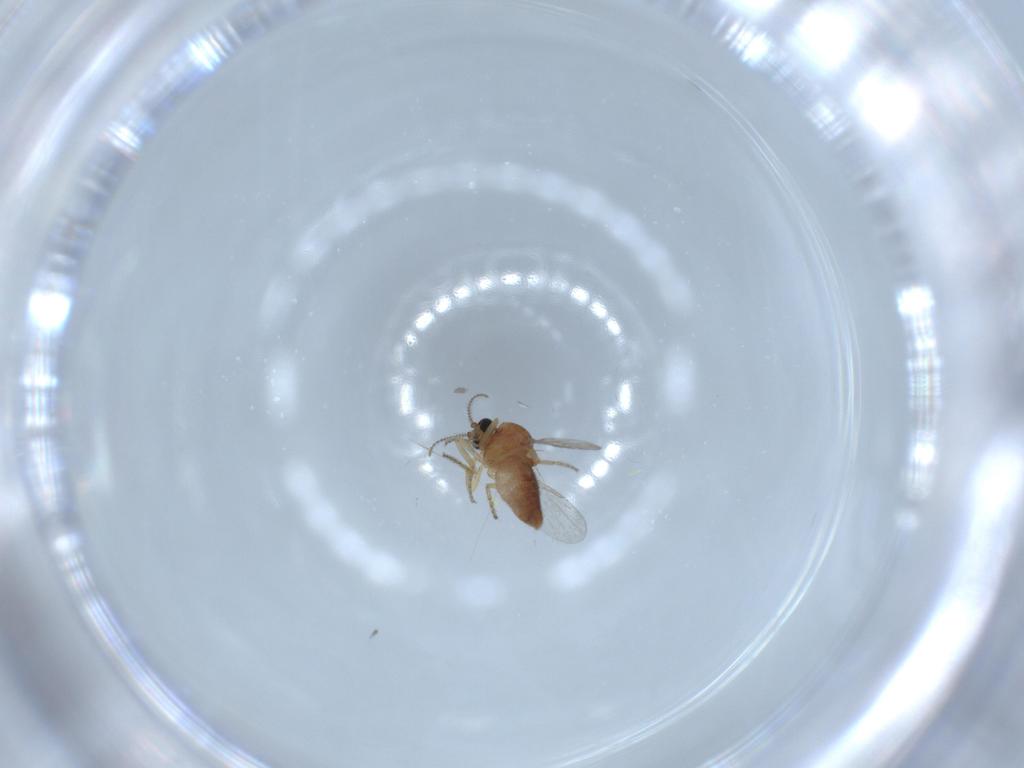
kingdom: Animalia
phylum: Arthropoda
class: Insecta
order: Diptera
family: Ceratopogonidae
